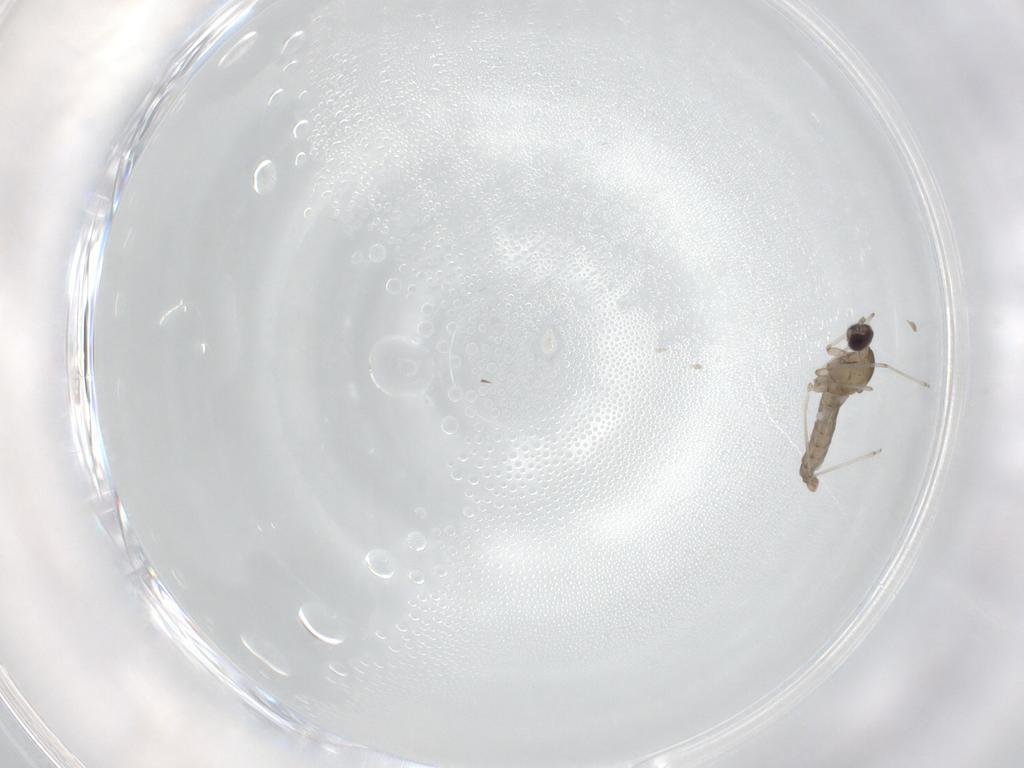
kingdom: Animalia
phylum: Arthropoda
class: Insecta
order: Diptera
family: Cecidomyiidae
